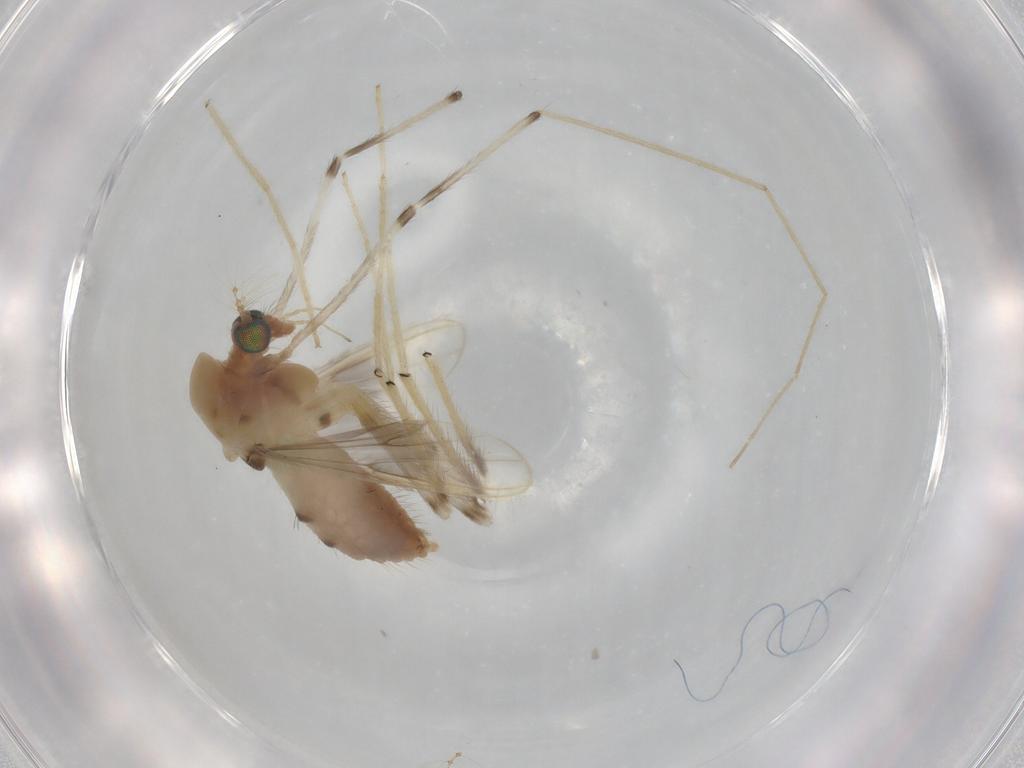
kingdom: Animalia
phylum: Arthropoda
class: Insecta
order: Diptera
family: Chironomidae
